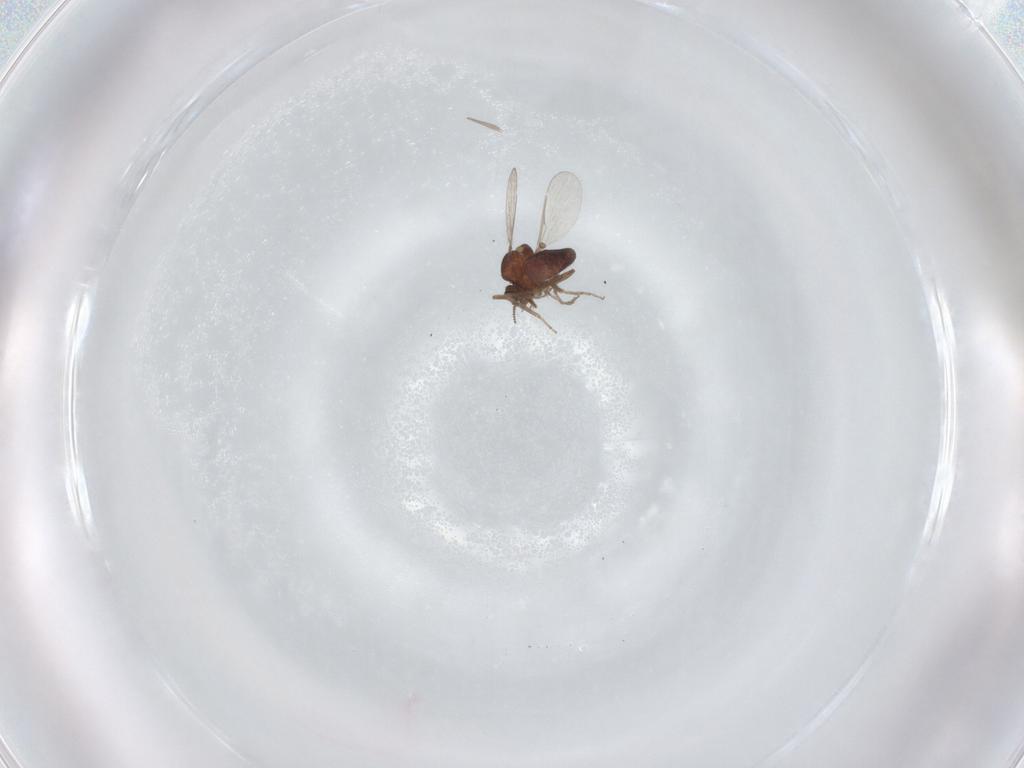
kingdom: Animalia
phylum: Arthropoda
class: Insecta
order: Diptera
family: Ceratopogonidae
